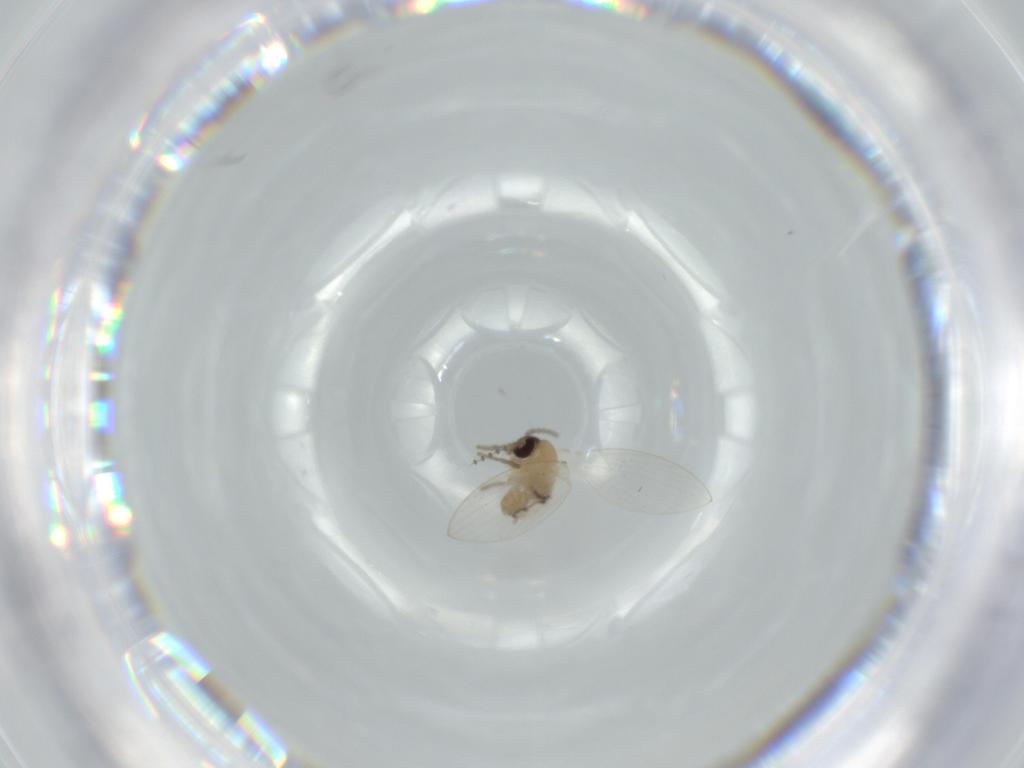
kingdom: Animalia
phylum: Arthropoda
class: Insecta
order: Diptera
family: Psychodidae
